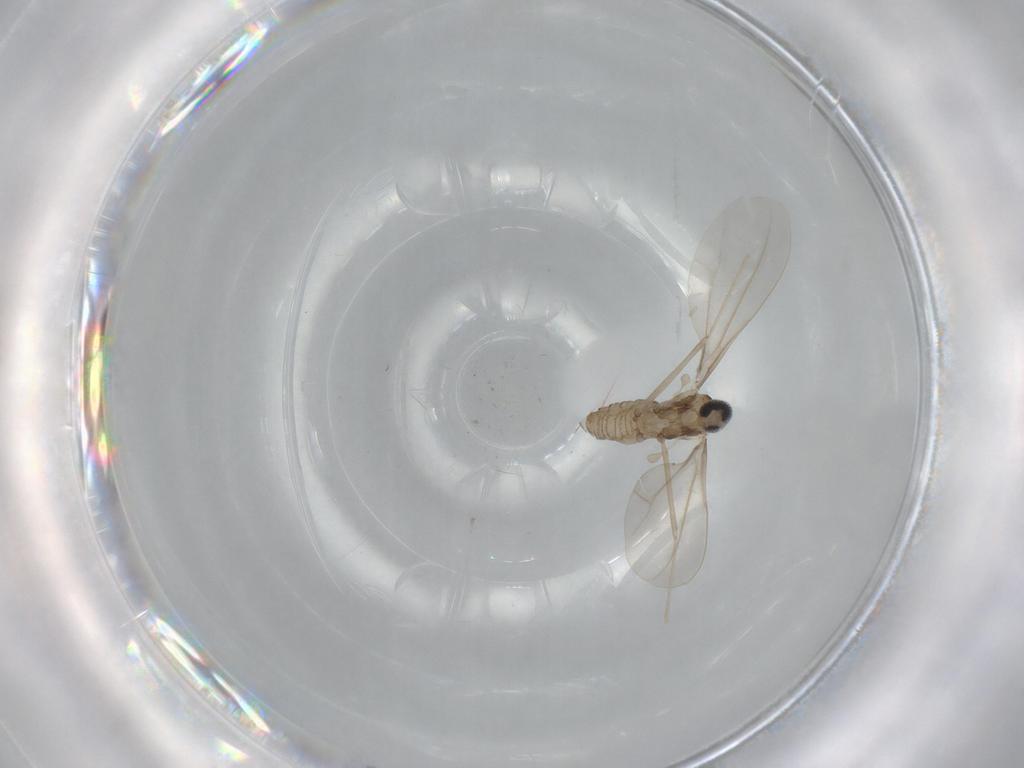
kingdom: Animalia
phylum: Arthropoda
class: Insecta
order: Diptera
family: Cecidomyiidae
